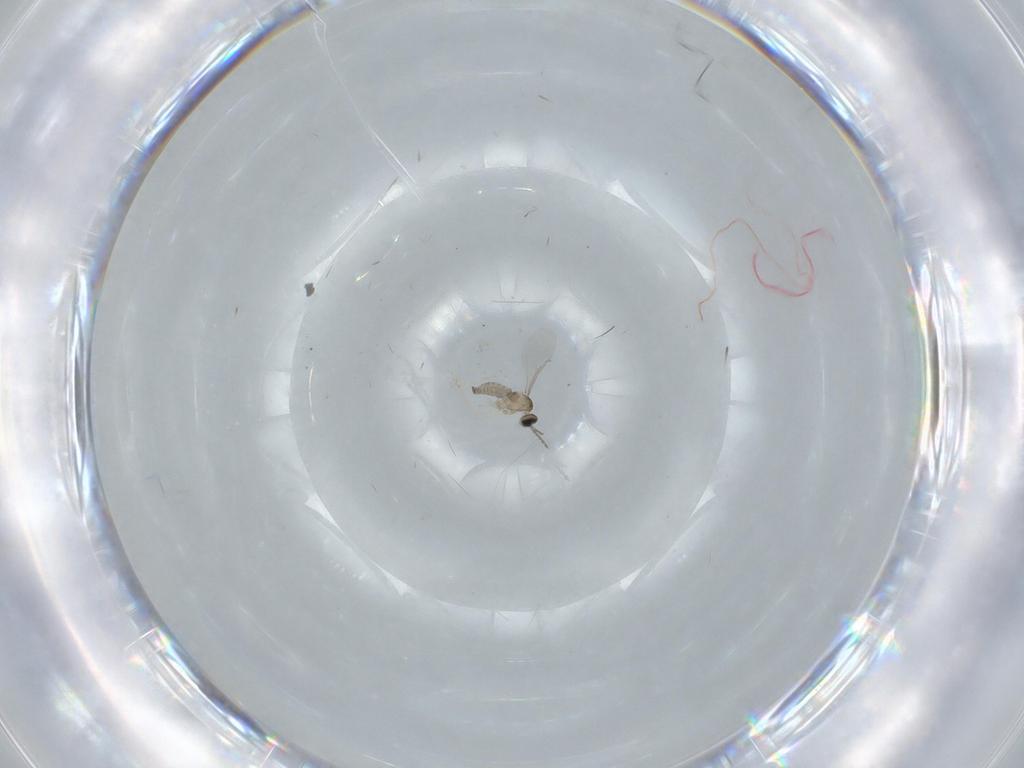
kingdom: Animalia
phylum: Arthropoda
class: Insecta
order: Diptera
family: Cecidomyiidae
